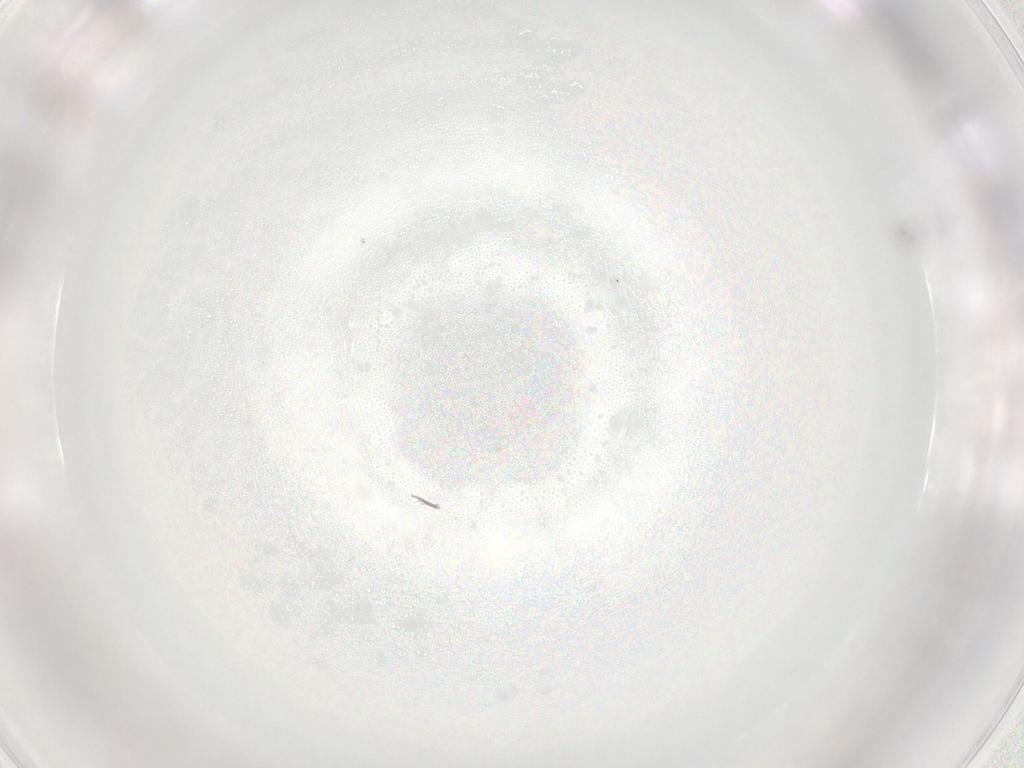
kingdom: Animalia
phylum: Arthropoda
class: Arachnida
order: Trombidiformes
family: Eupodidae
